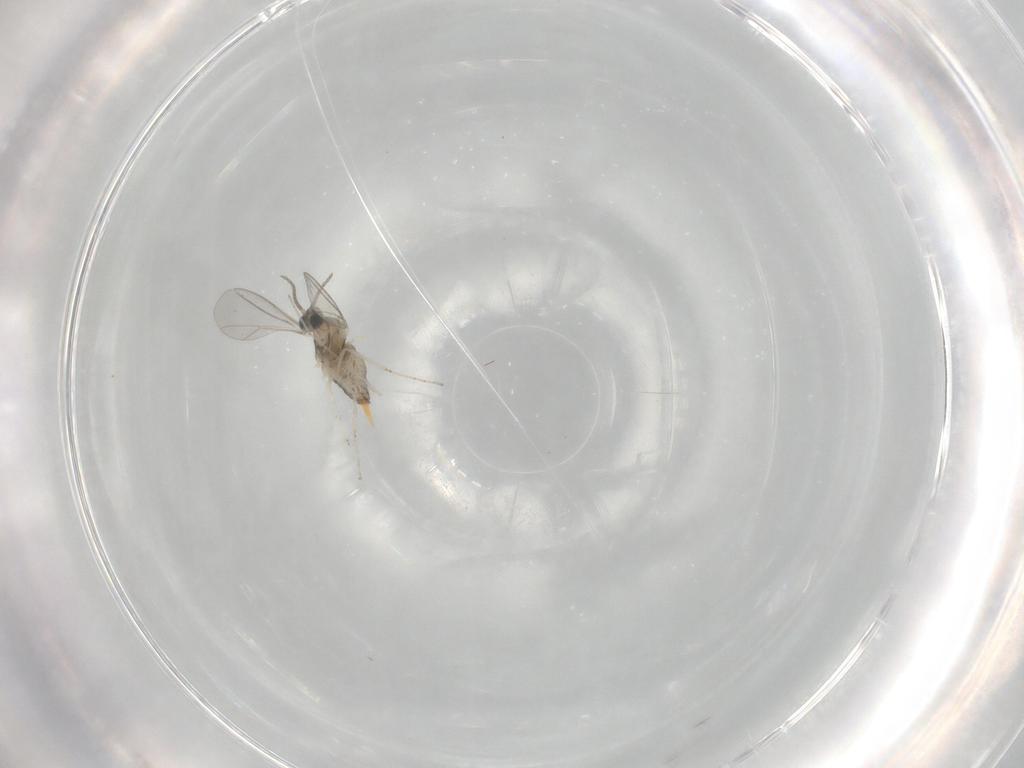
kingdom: Animalia
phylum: Arthropoda
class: Insecta
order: Diptera
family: Cecidomyiidae
